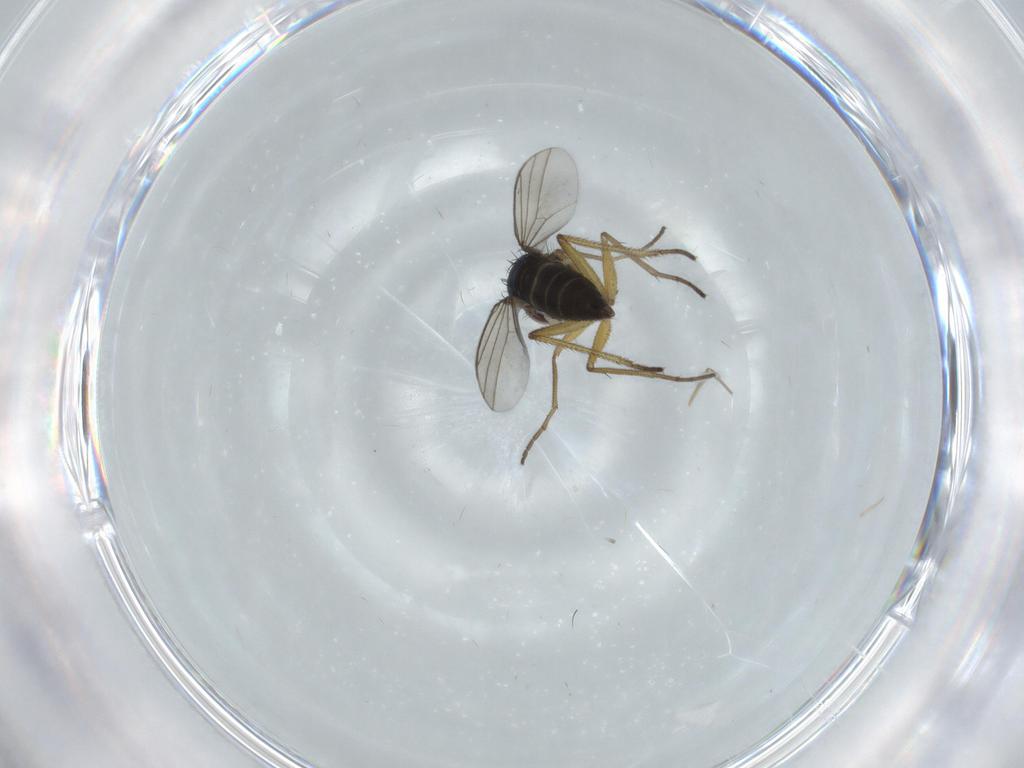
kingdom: Animalia
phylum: Arthropoda
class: Insecta
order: Diptera
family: Dolichopodidae
